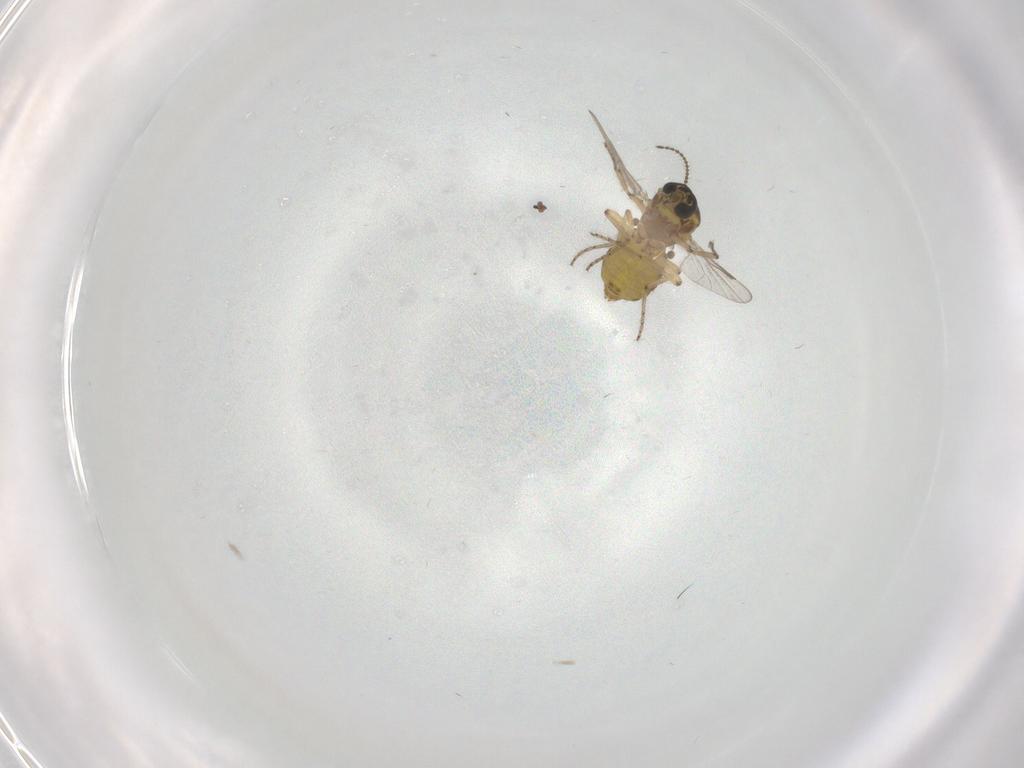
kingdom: Animalia
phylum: Arthropoda
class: Insecta
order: Diptera
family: Ceratopogonidae
